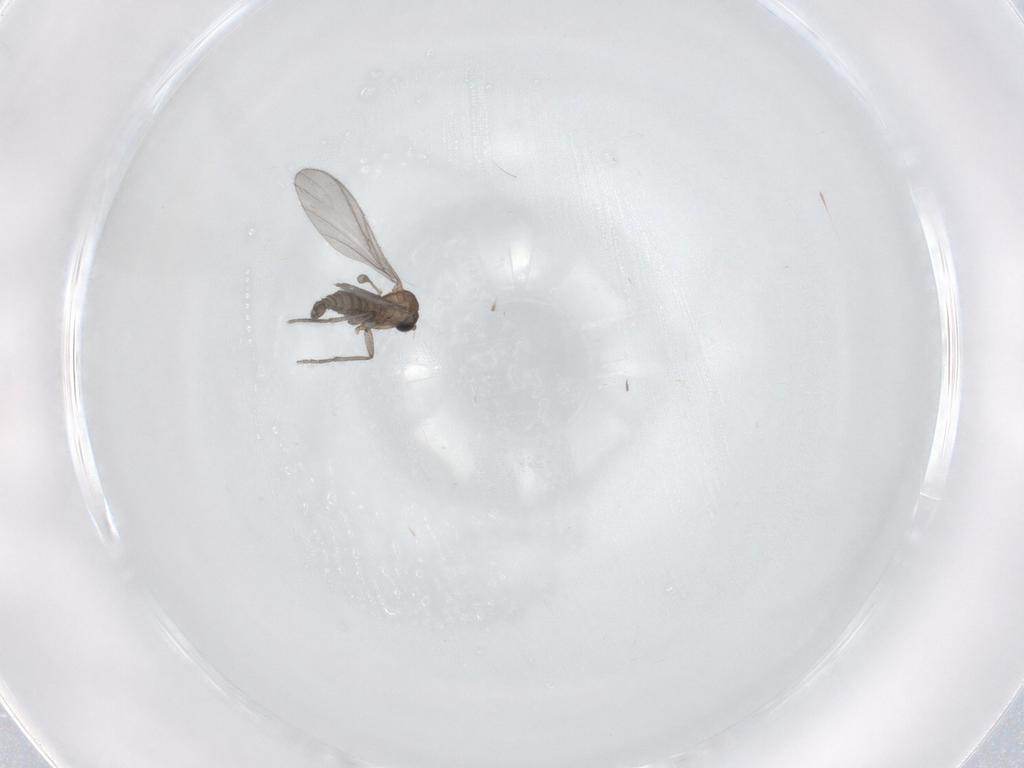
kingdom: Animalia
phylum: Arthropoda
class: Insecta
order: Diptera
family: Sciaridae
